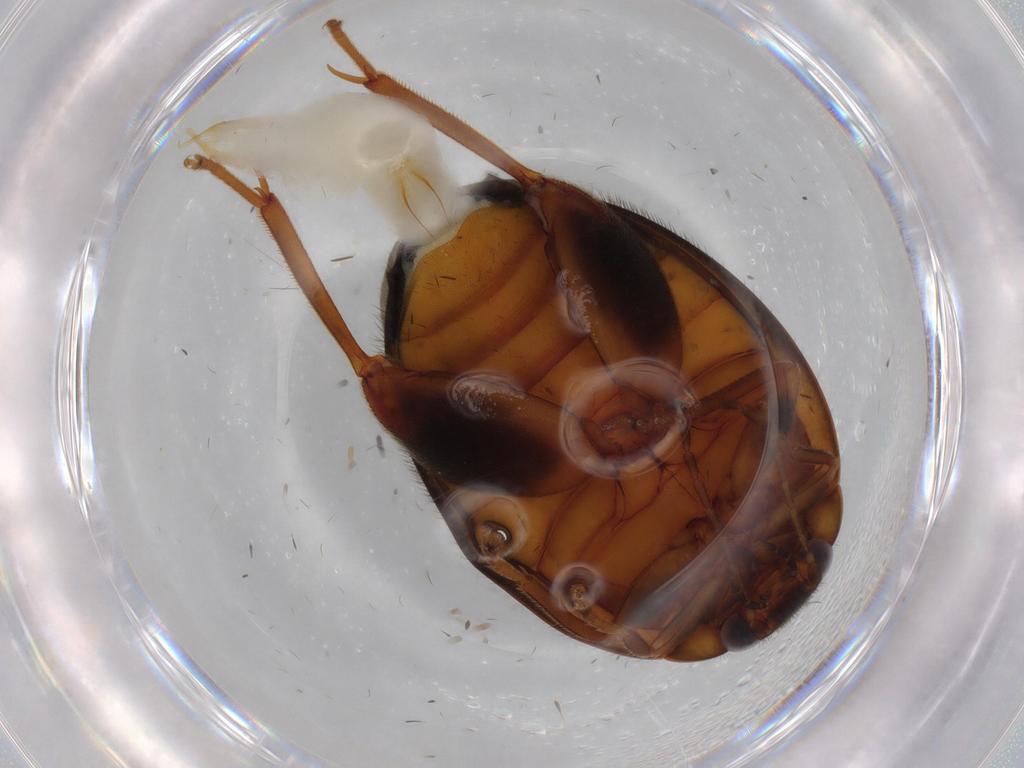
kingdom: Animalia
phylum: Arthropoda
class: Insecta
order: Coleoptera
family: Scirtidae
